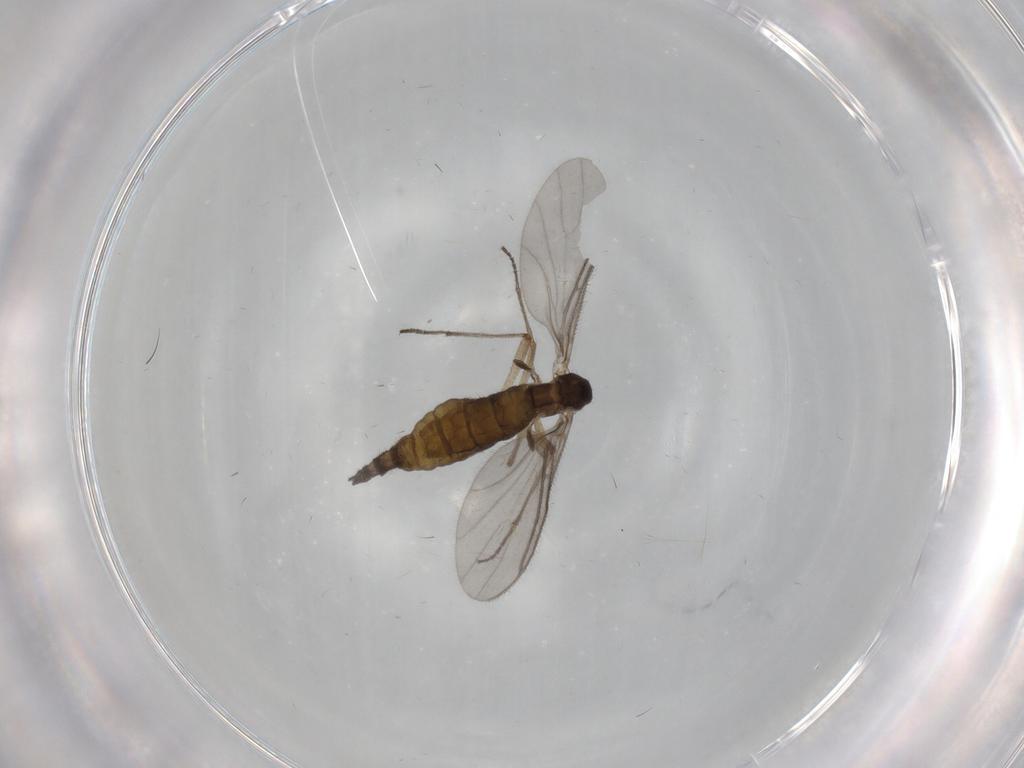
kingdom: Animalia
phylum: Arthropoda
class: Insecta
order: Diptera
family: Sciaridae
